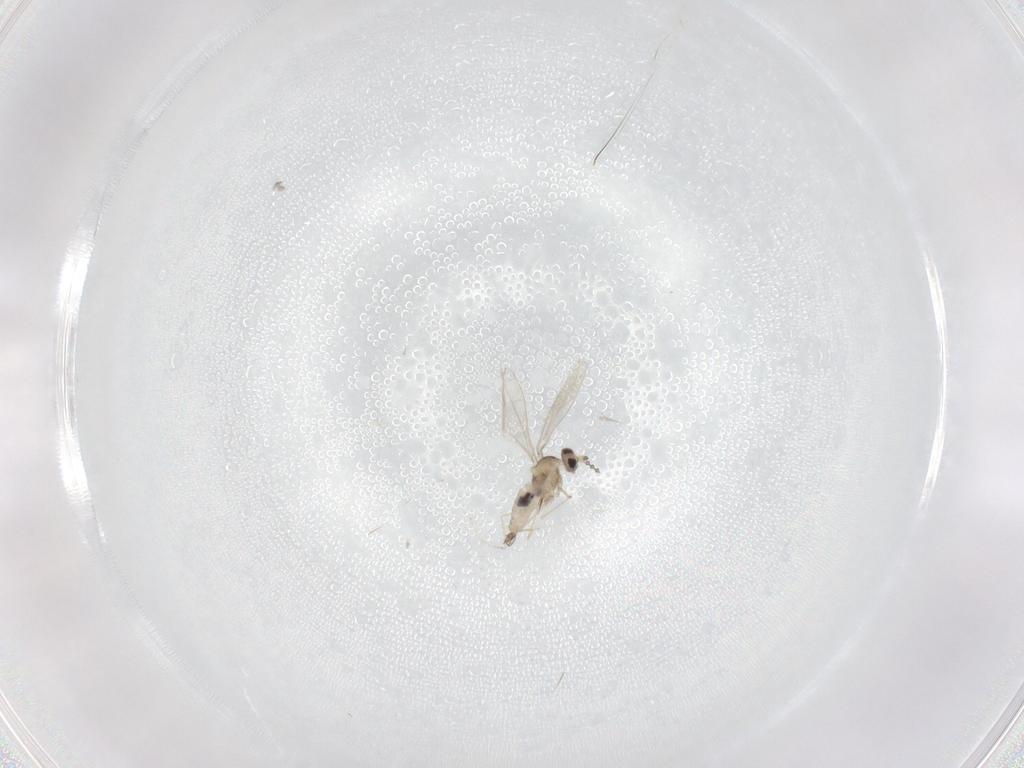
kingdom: Animalia
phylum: Arthropoda
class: Insecta
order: Diptera
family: Cecidomyiidae
